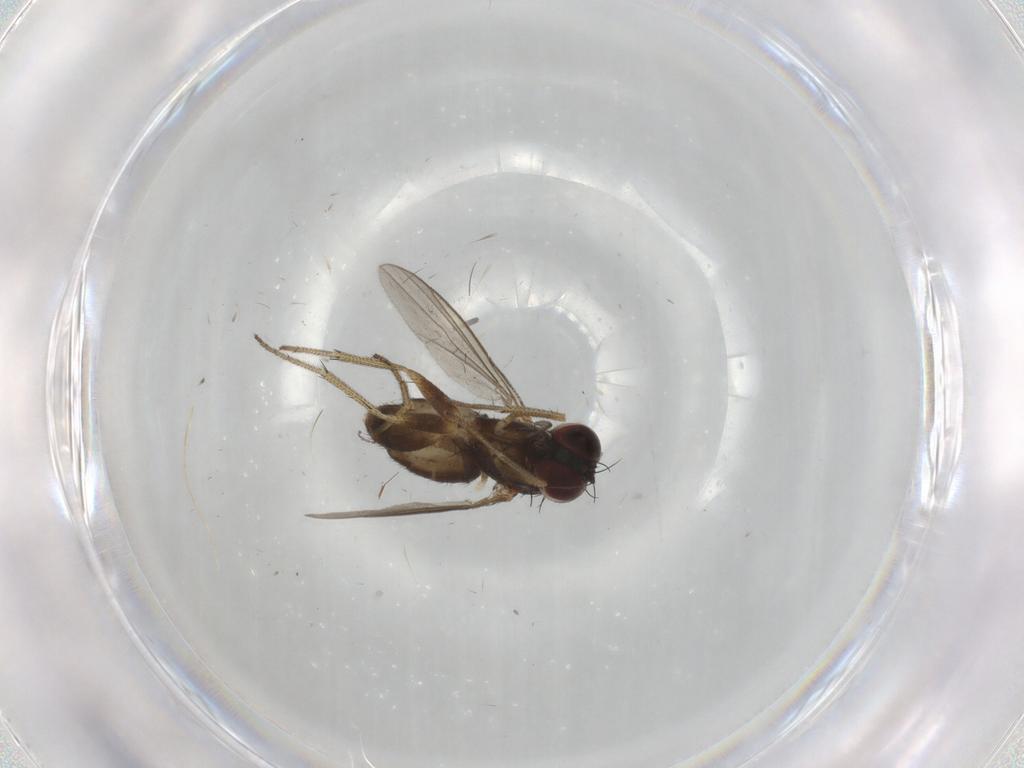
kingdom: Animalia
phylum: Arthropoda
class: Insecta
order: Diptera
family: Sciaridae
